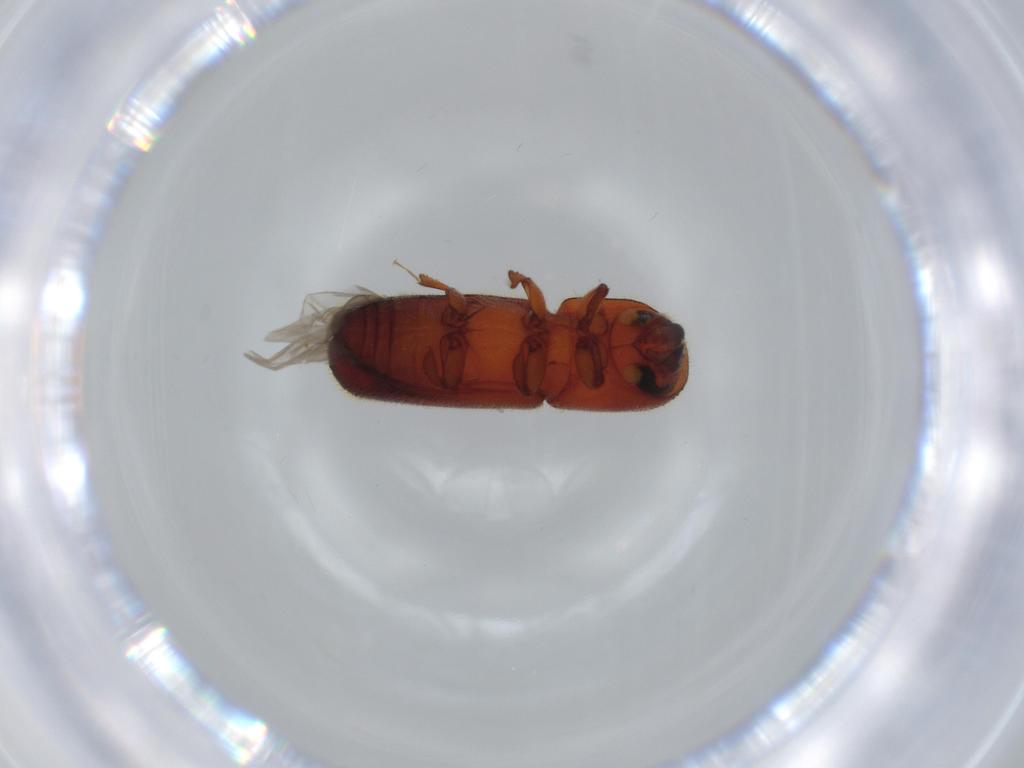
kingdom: Animalia
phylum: Arthropoda
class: Insecta
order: Coleoptera
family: Curculionidae
